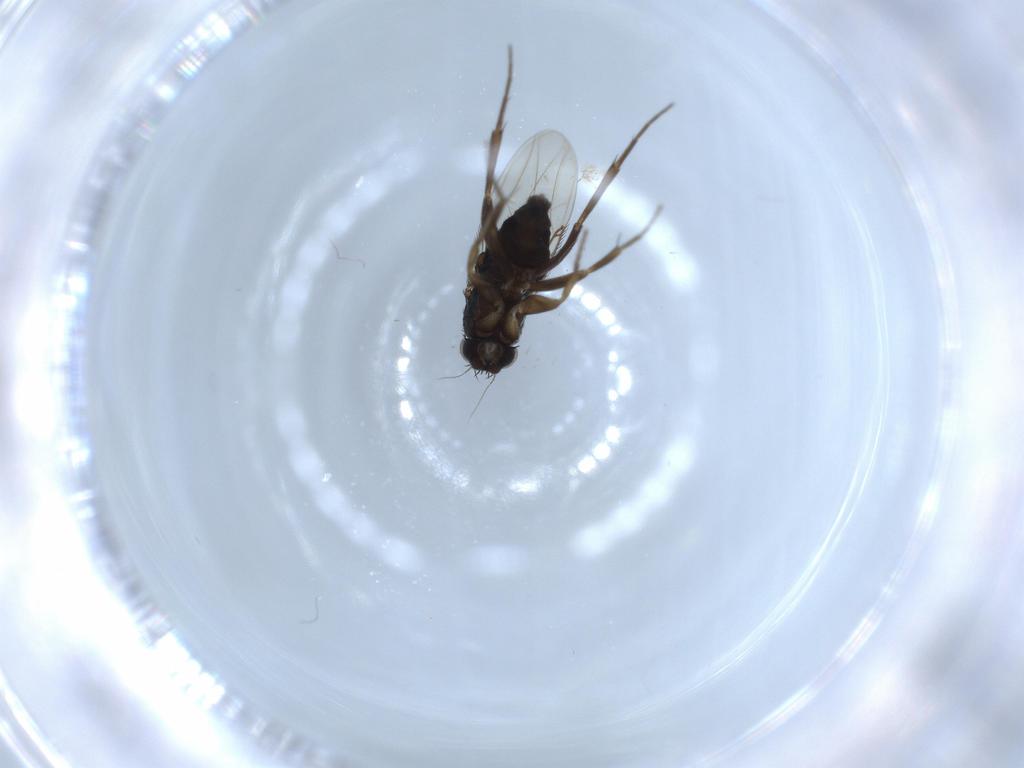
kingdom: Animalia
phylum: Arthropoda
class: Insecta
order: Diptera
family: Phoridae
